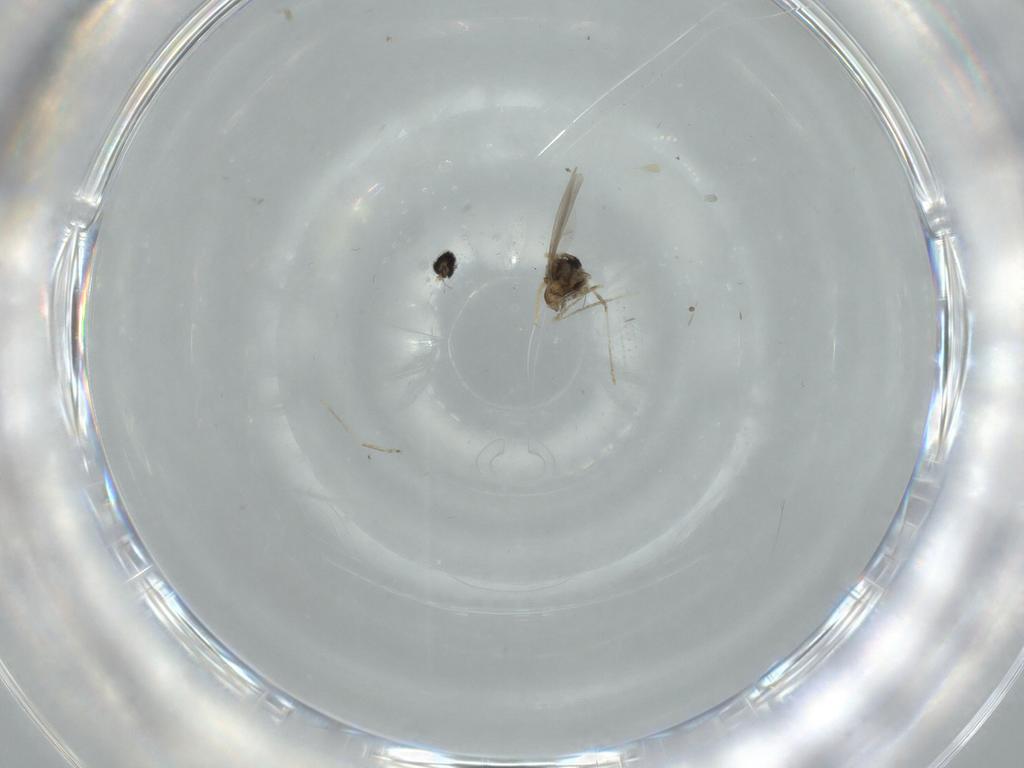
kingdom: Animalia
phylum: Arthropoda
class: Insecta
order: Diptera
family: Cecidomyiidae
